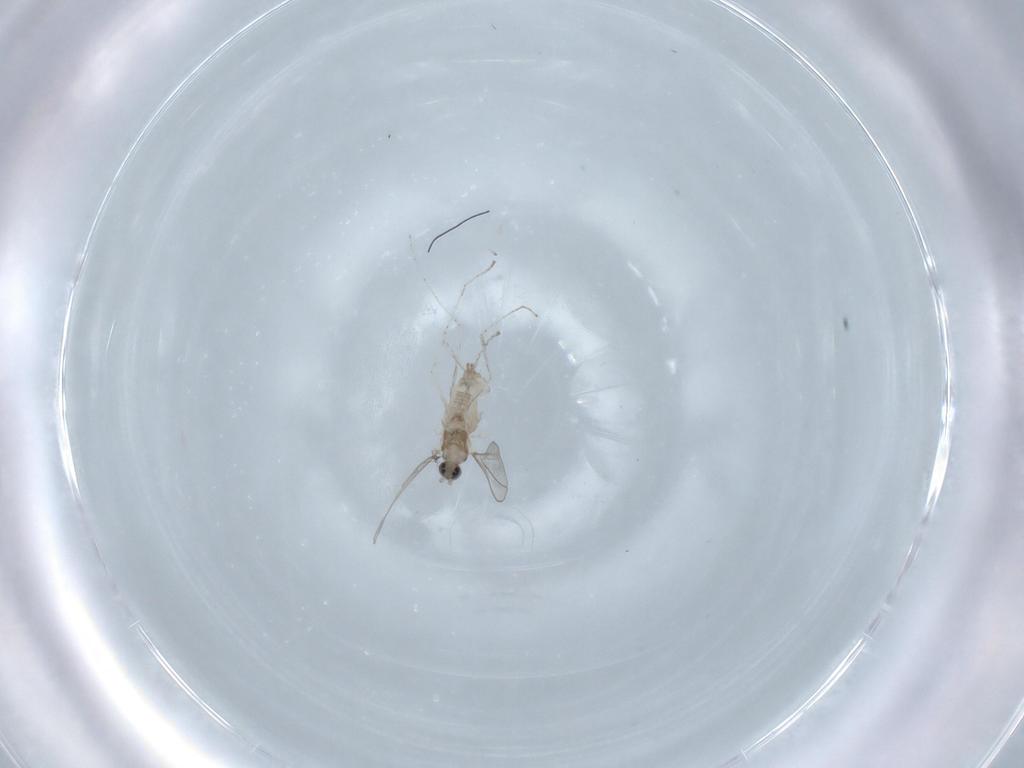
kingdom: Animalia
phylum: Arthropoda
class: Insecta
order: Diptera
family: Cecidomyiidae
